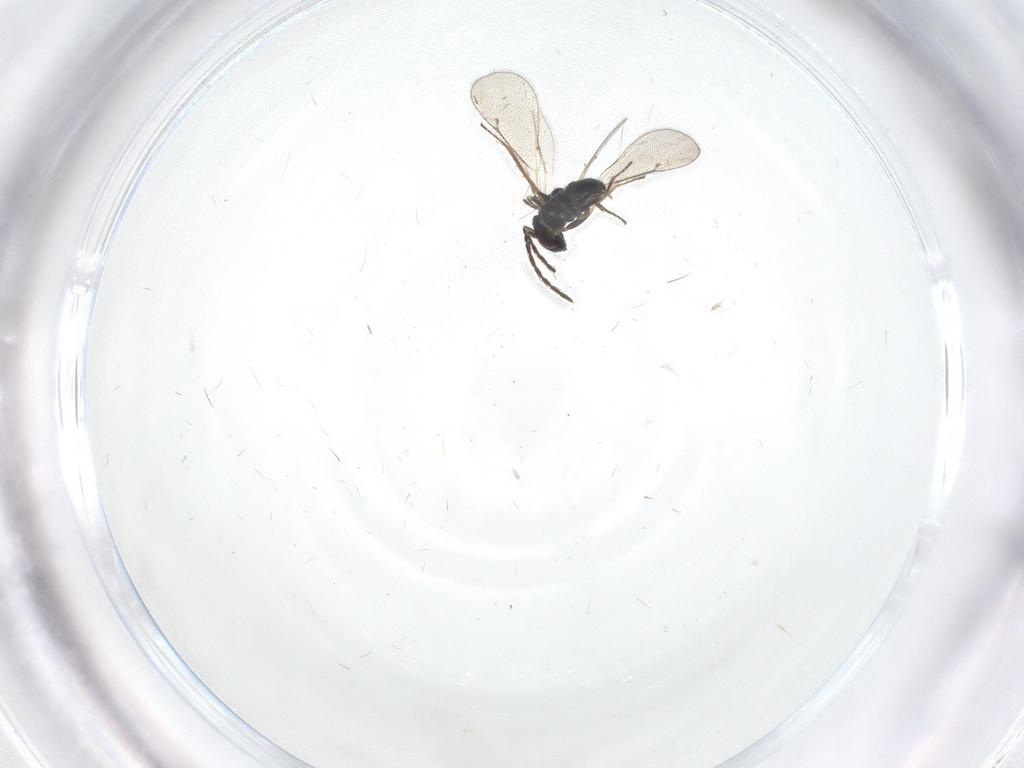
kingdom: Animalia
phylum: Arthropoda
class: Insecta
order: Hymenoptera
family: Eulophidae
